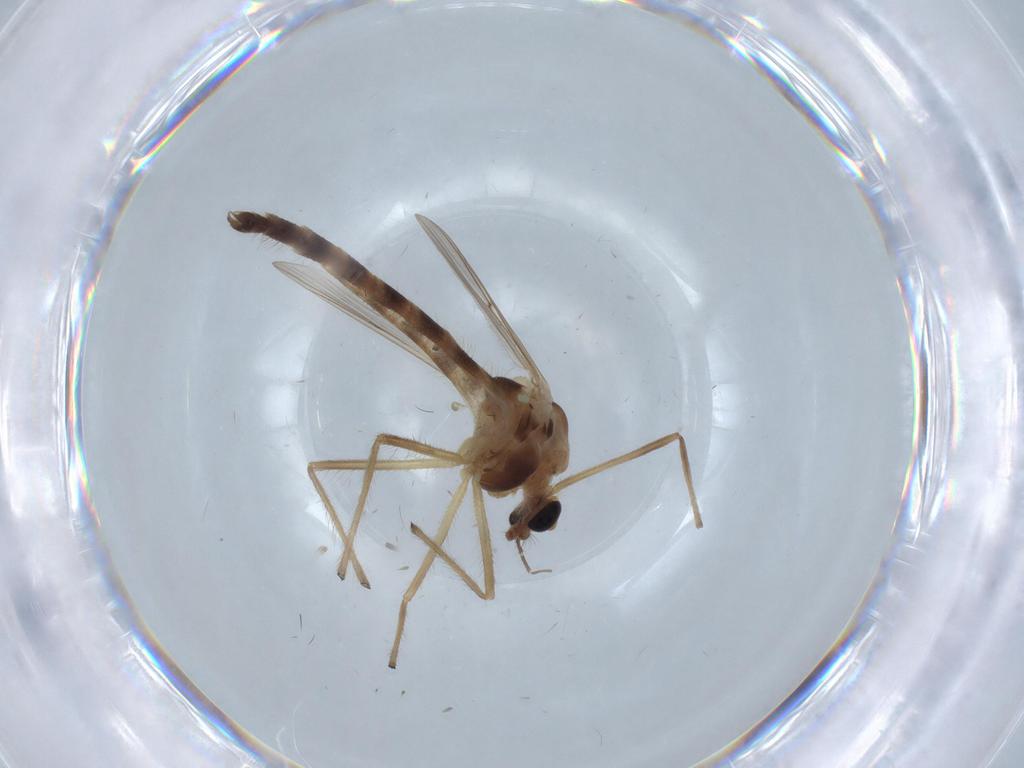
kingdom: Animalia
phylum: Arthropoda
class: Insecta
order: Diptera
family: Chironomidae
